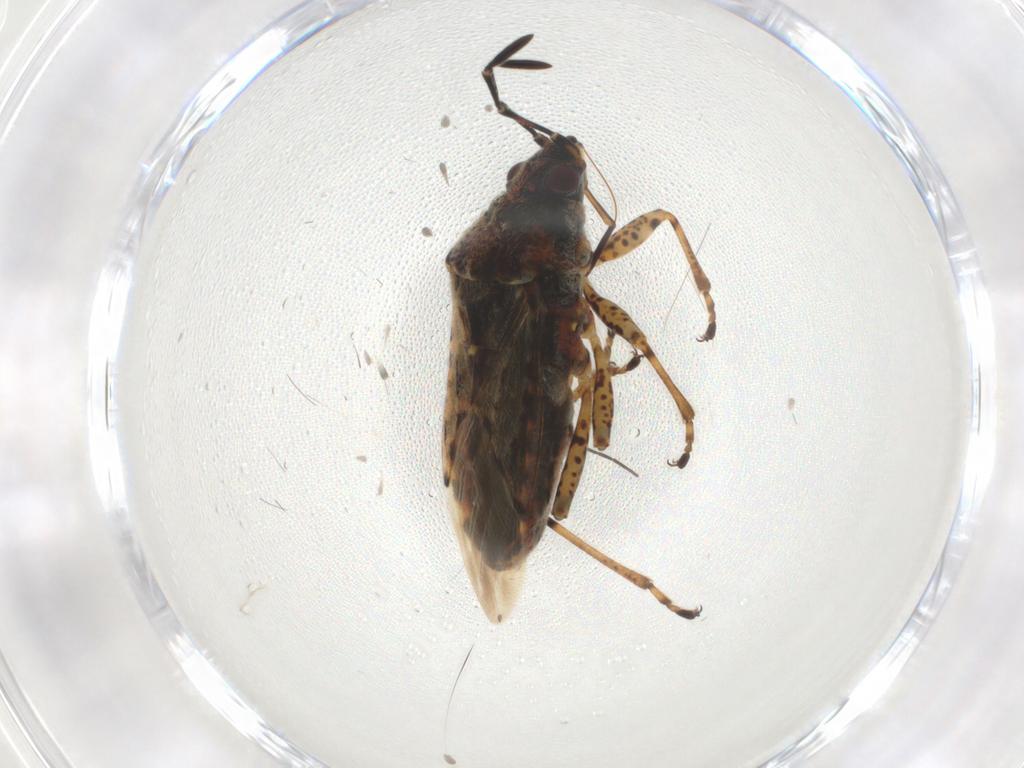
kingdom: Animalia
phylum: Arthropoda
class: Insecta
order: Hemiptera
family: Lygaeidae
